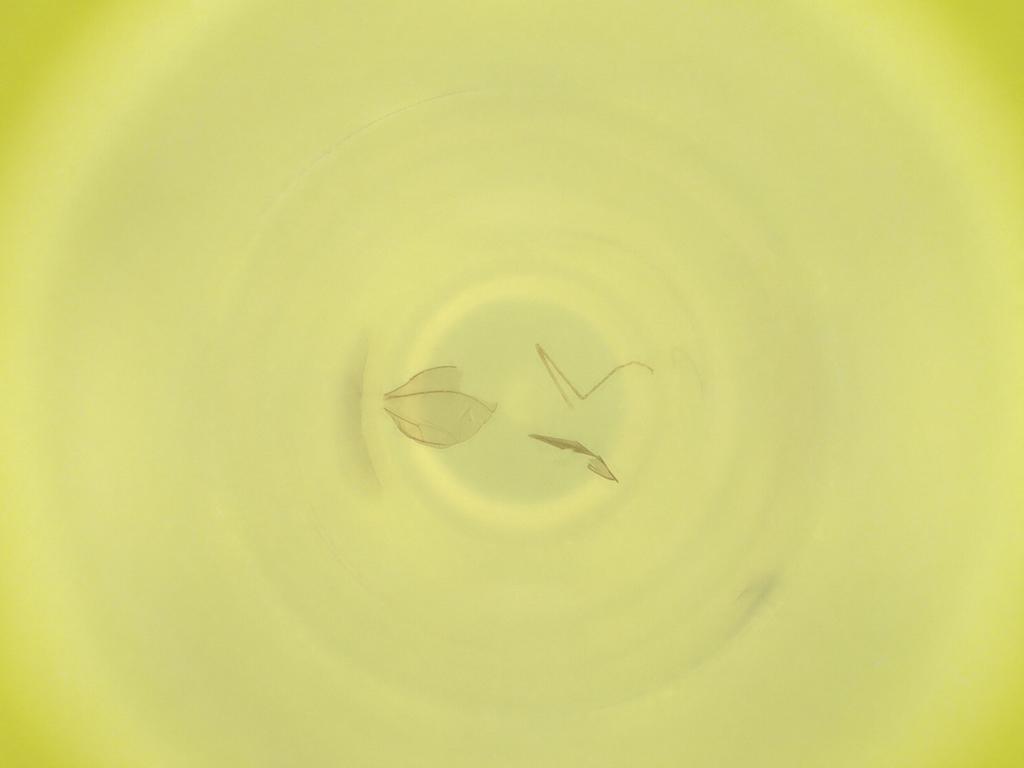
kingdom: Animalia
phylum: Arthropoda
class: Insecta
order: Diptera
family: Cecidomyiidae
